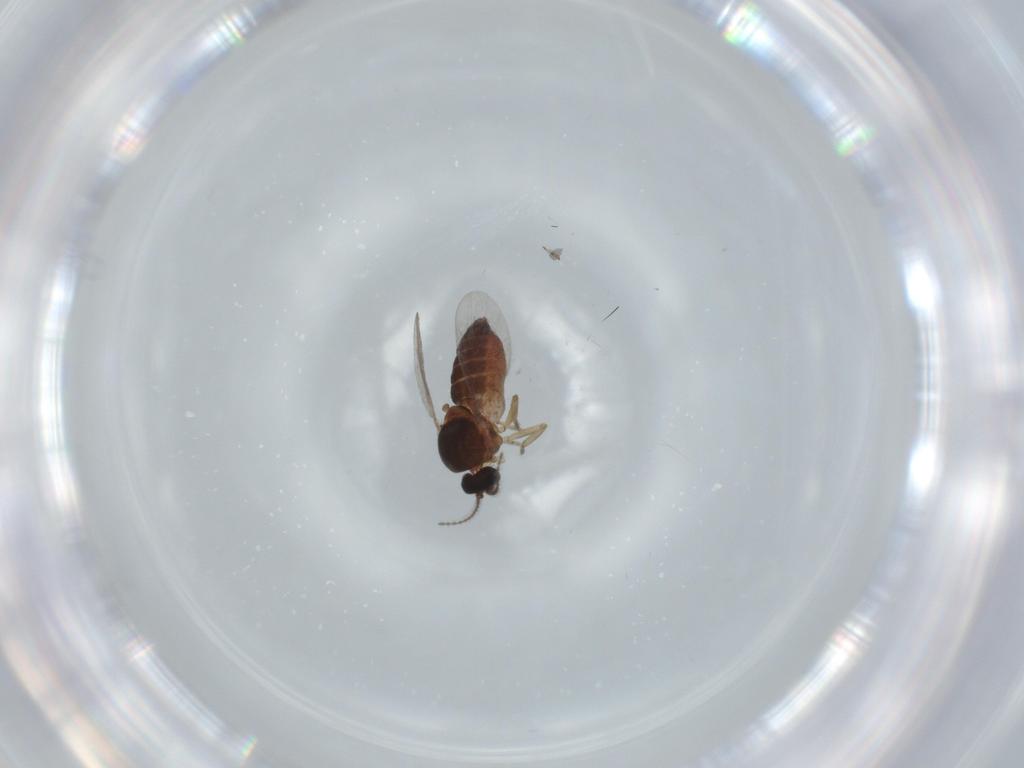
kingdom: Animalia
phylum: Arthropoda
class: Insecta
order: Diptera
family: Ceratopogonidae
